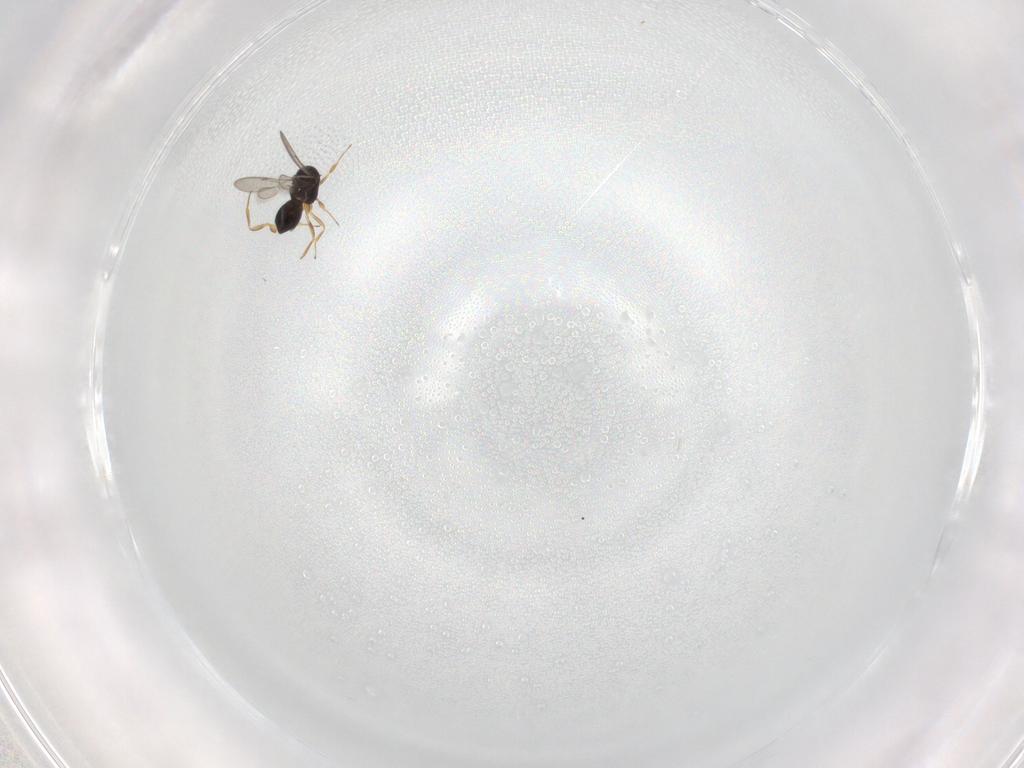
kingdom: Animalia
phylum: Arthropoda
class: Insecta
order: Hymenoptera
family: Scelionidae
